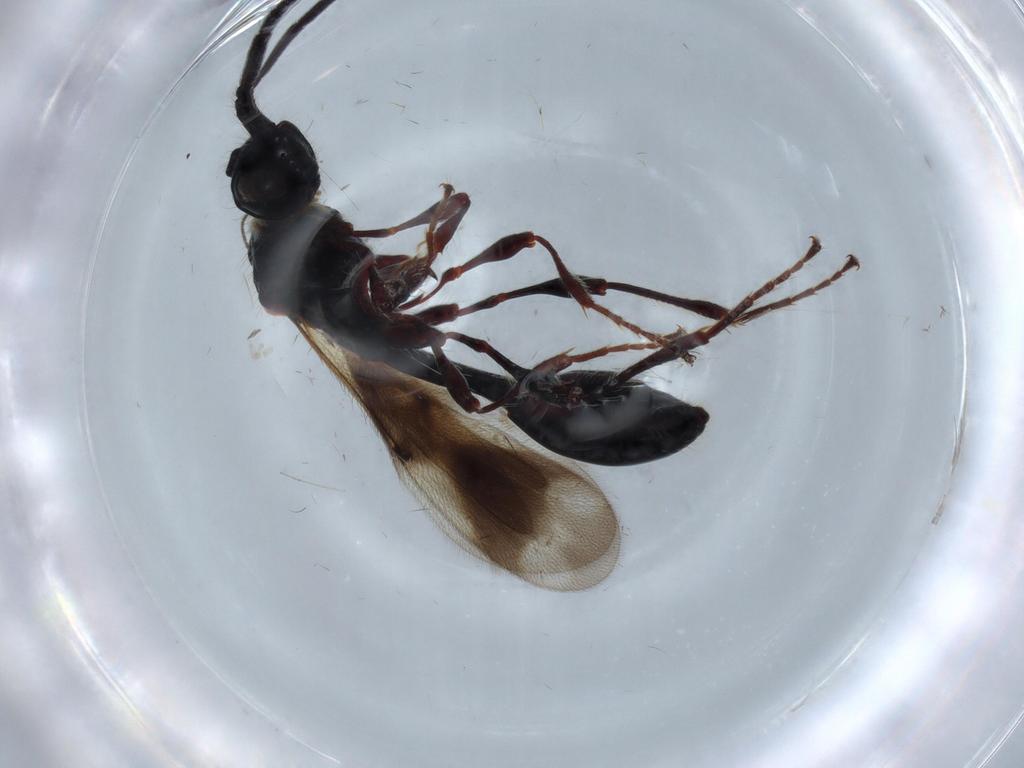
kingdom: Animalia
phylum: Arthropoda
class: Insecta
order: Hymenoptera
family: Diapriidae
